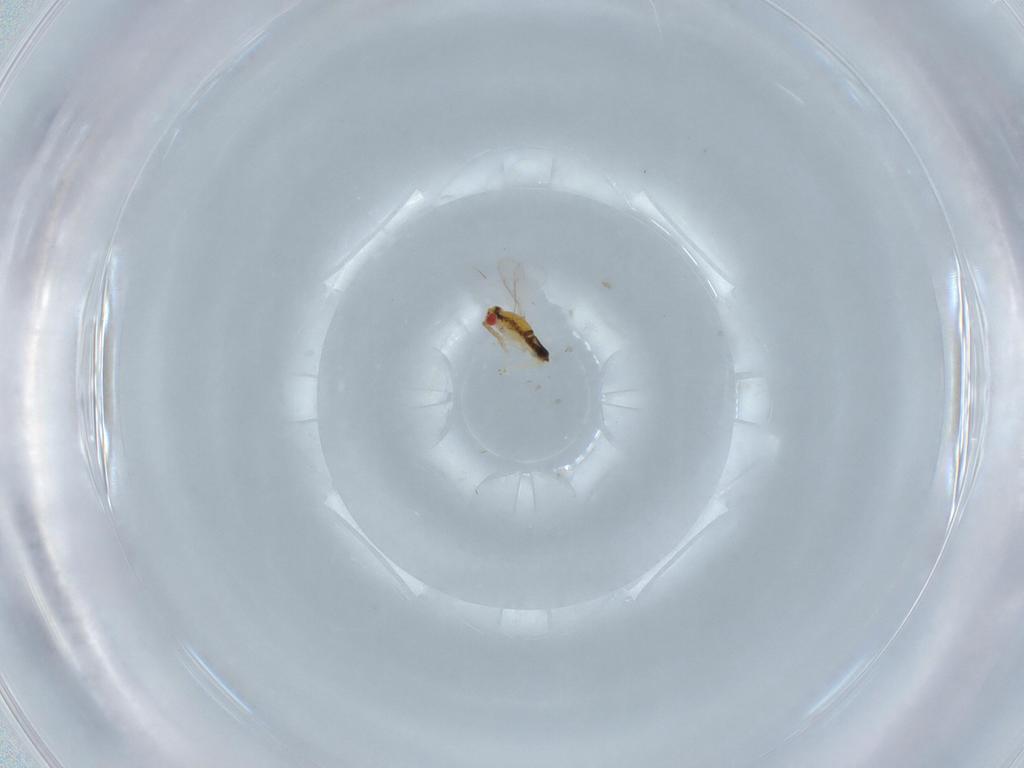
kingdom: Animalia
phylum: Arthropoda
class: Insecta
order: Hymenoptera
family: Aphelinidae
